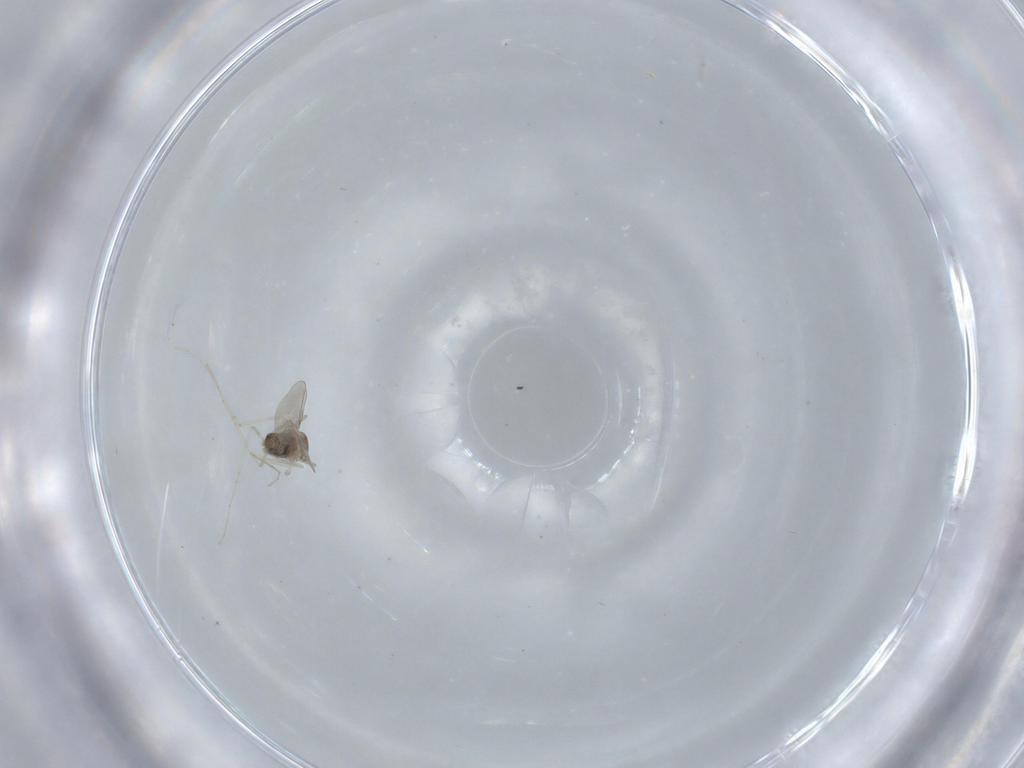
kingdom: Animalia
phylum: Arthropoda
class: Insecta
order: Diptera
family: Cecidomyiidae
